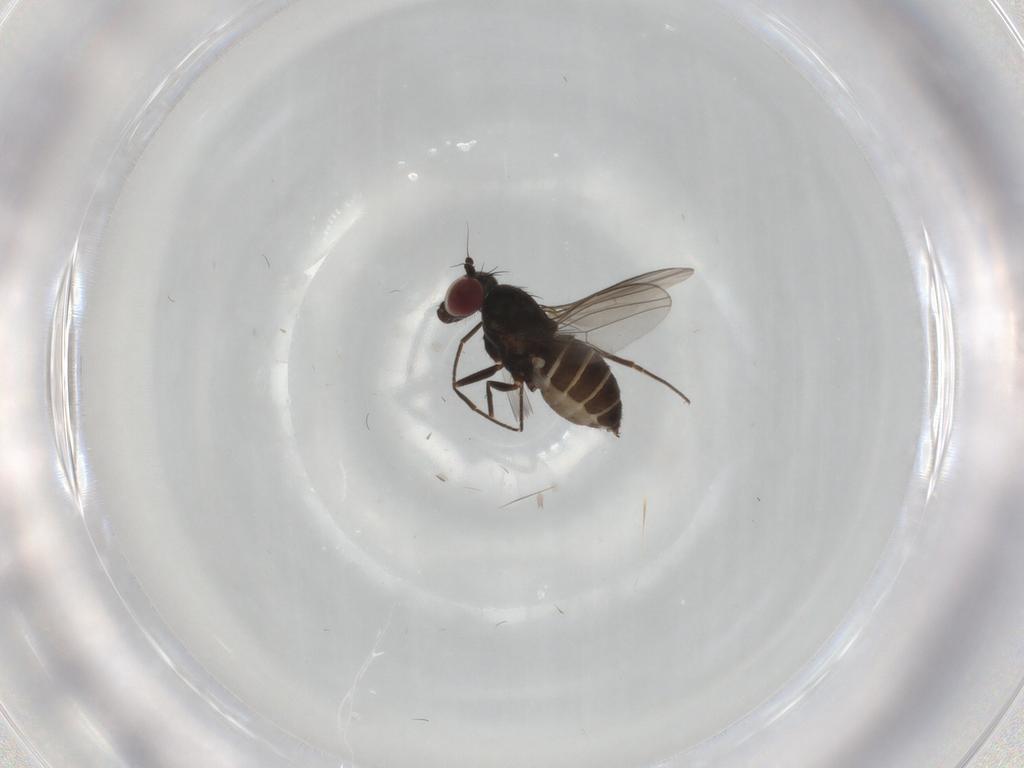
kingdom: Animalia
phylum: Arthropoda
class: Insecta
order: Diptera
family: Dolichopodidae
